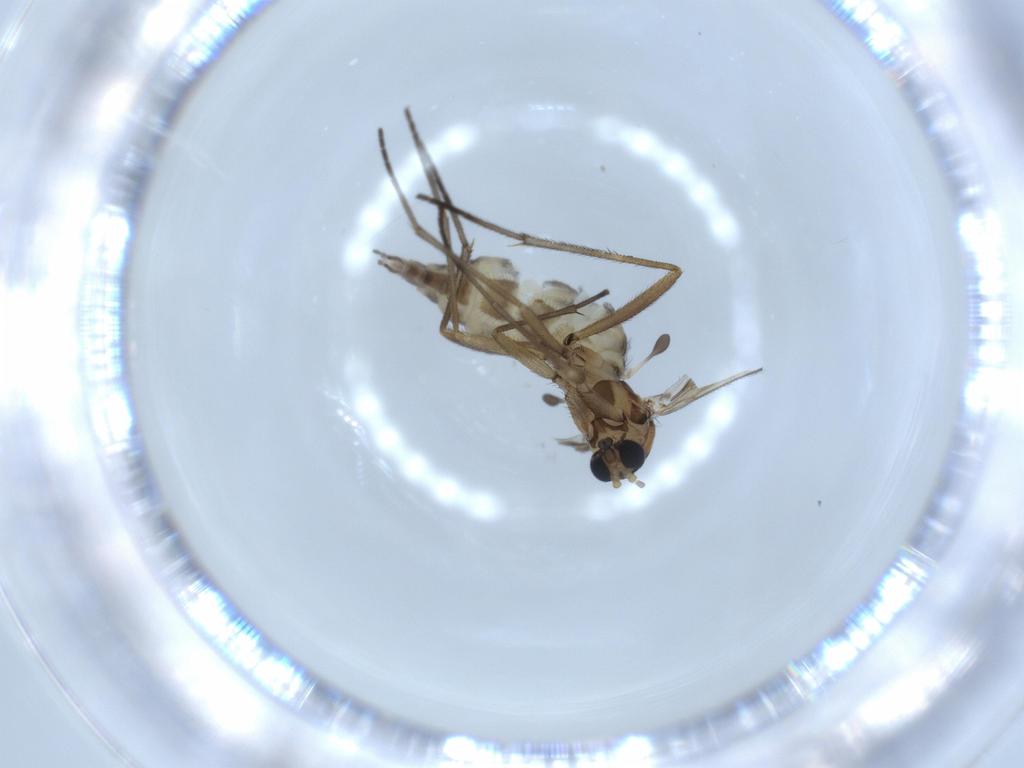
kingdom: Animalia
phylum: Arthropoda
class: Insecta
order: Diptera
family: Sciaridae
